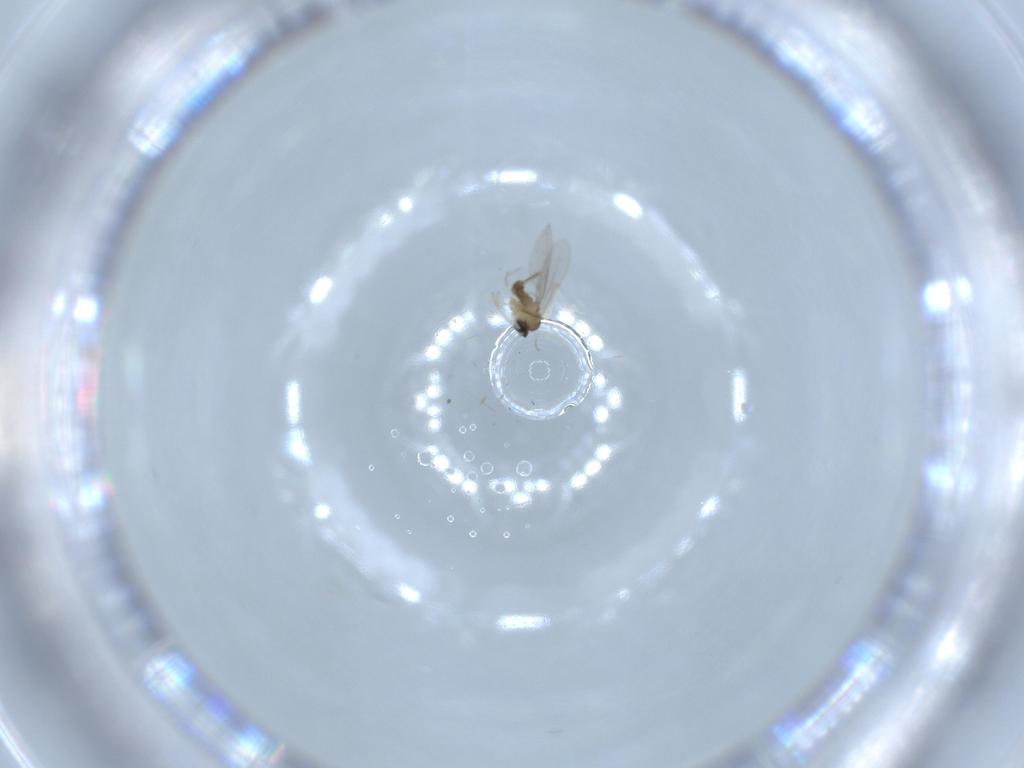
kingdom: Animalia
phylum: Arthropoda
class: Insecta
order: Diptera
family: Cecidomyiidae
